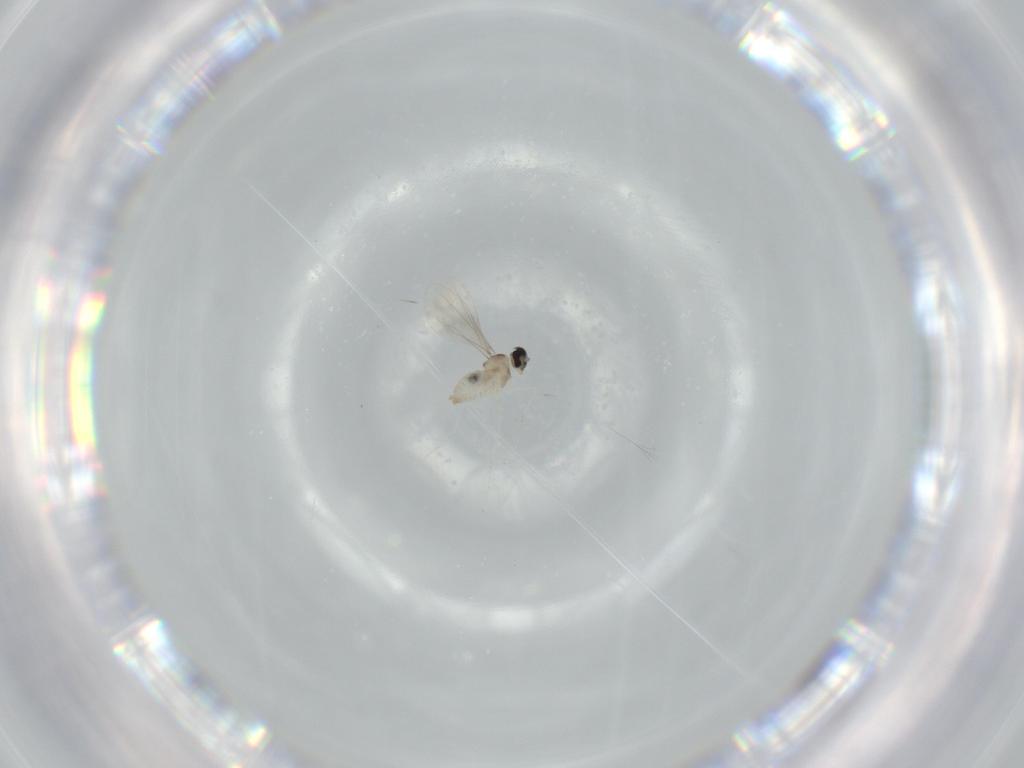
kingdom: Animalia
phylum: Arthropoda
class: Insecta
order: Diptera
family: Cecidomyiidae
